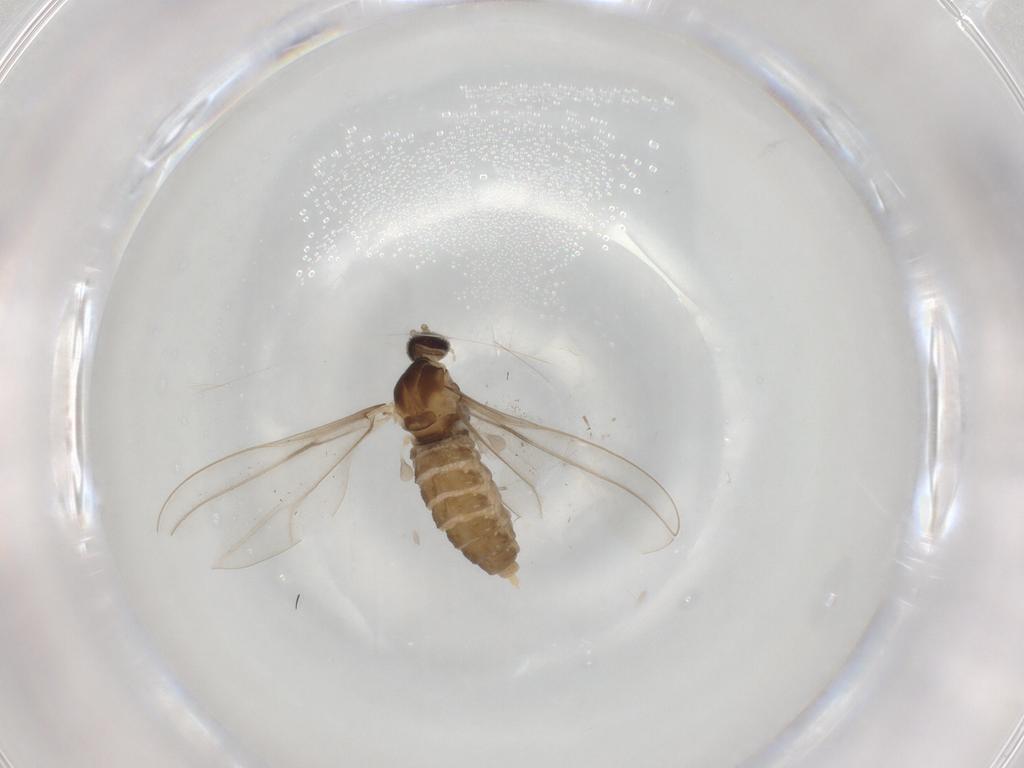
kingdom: Animalia
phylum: Arthropoda
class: Insecta
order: Diptera
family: Cecidomyiidae
